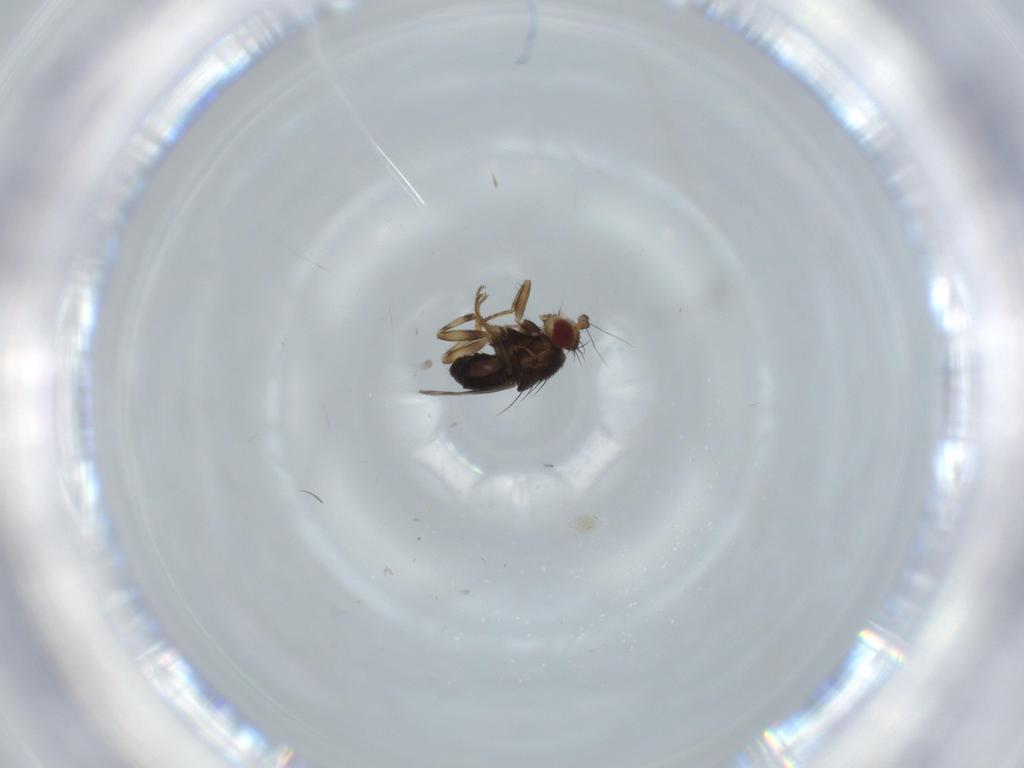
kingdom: Animalia
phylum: Arthropoda
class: Insecta
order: Diptera
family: Sphaeroceridae
